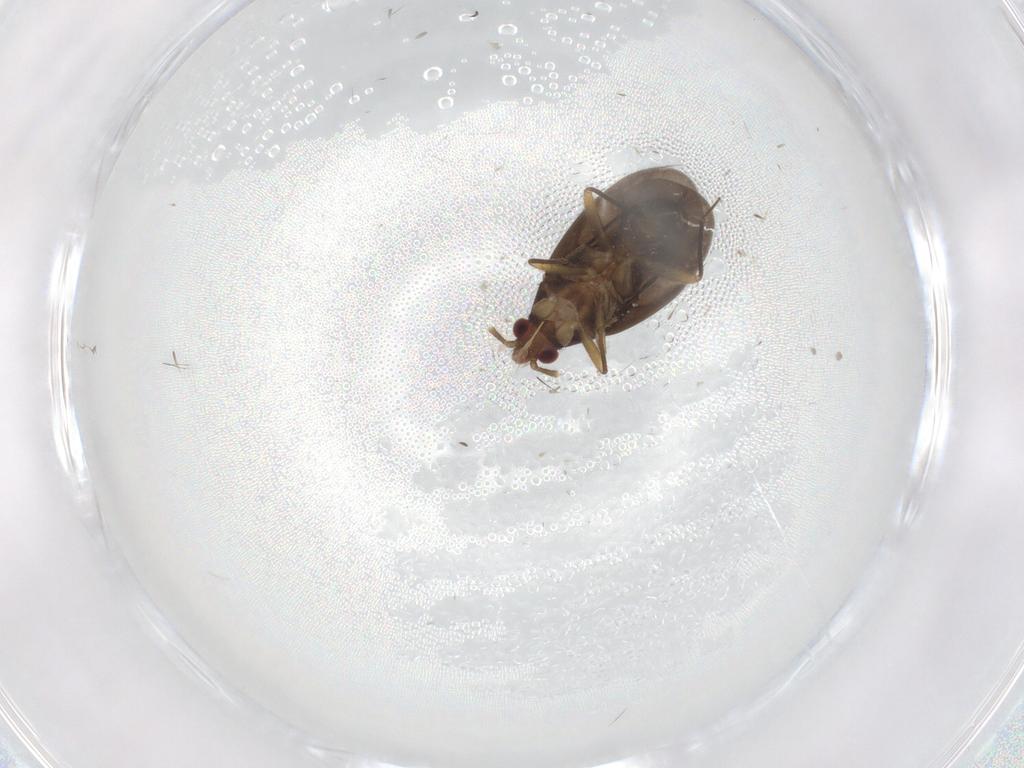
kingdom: Animalia
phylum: Arthropoda
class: Insecta
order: Hemiptera
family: Ceratocombidae
